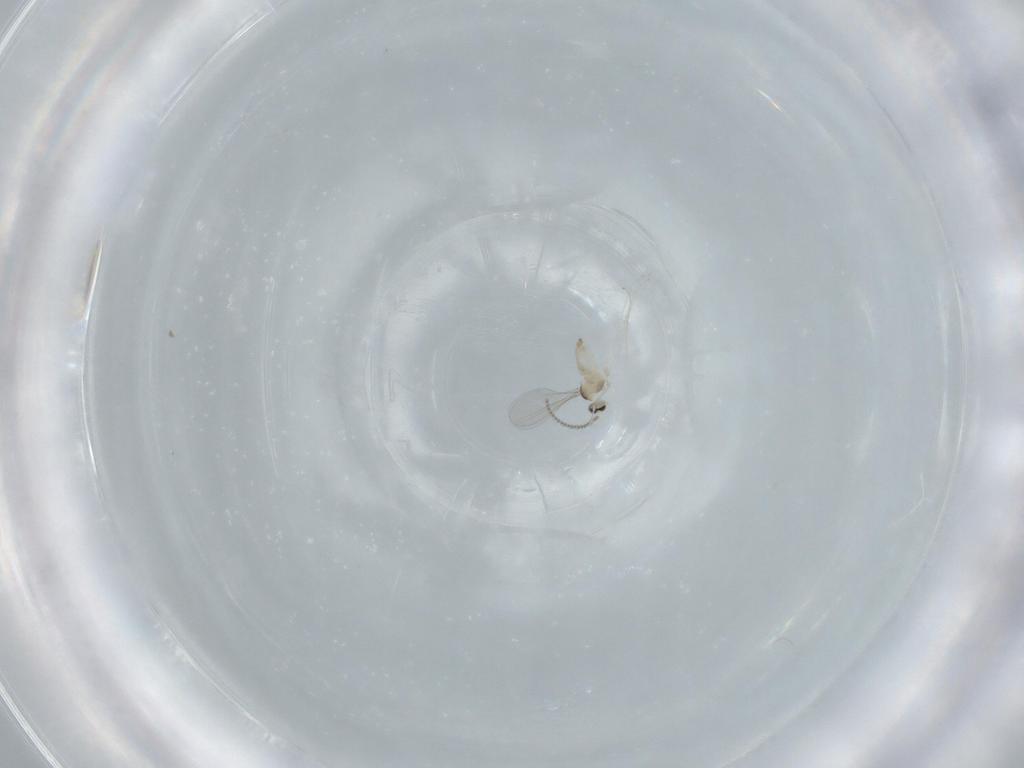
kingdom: Animalia
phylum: Arthropoda
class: Insecta
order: Diptera
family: Cecidomyiidae
